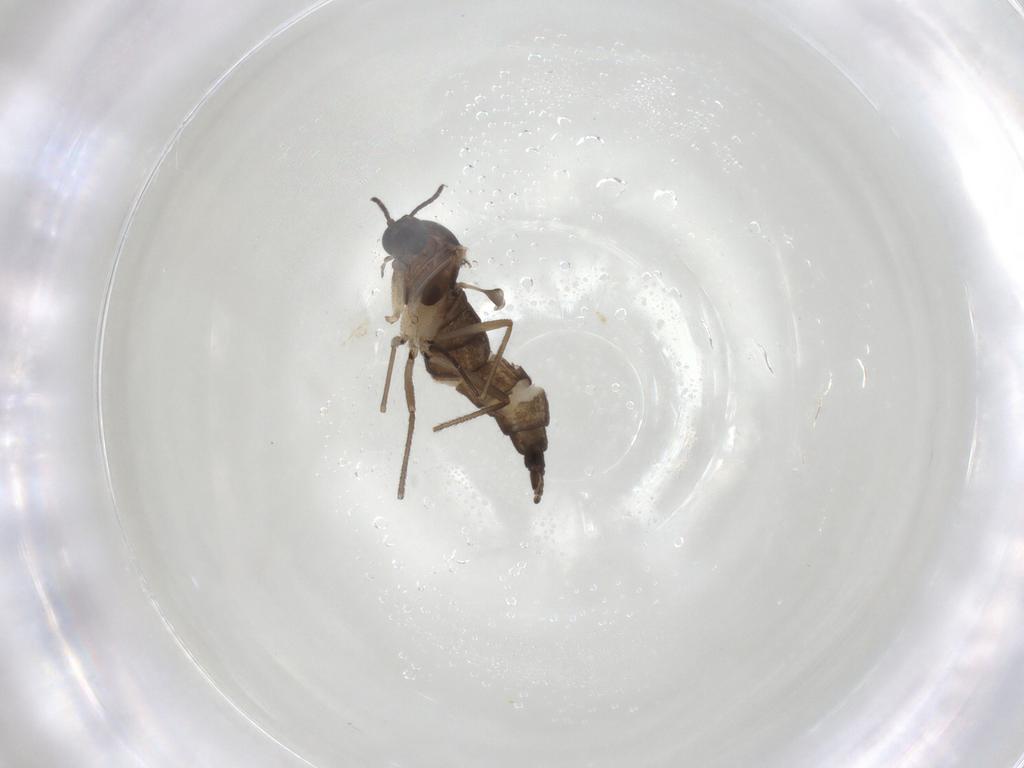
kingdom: Animalia
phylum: Arthropoda
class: Insecta
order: Diptera
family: Sciaridae
